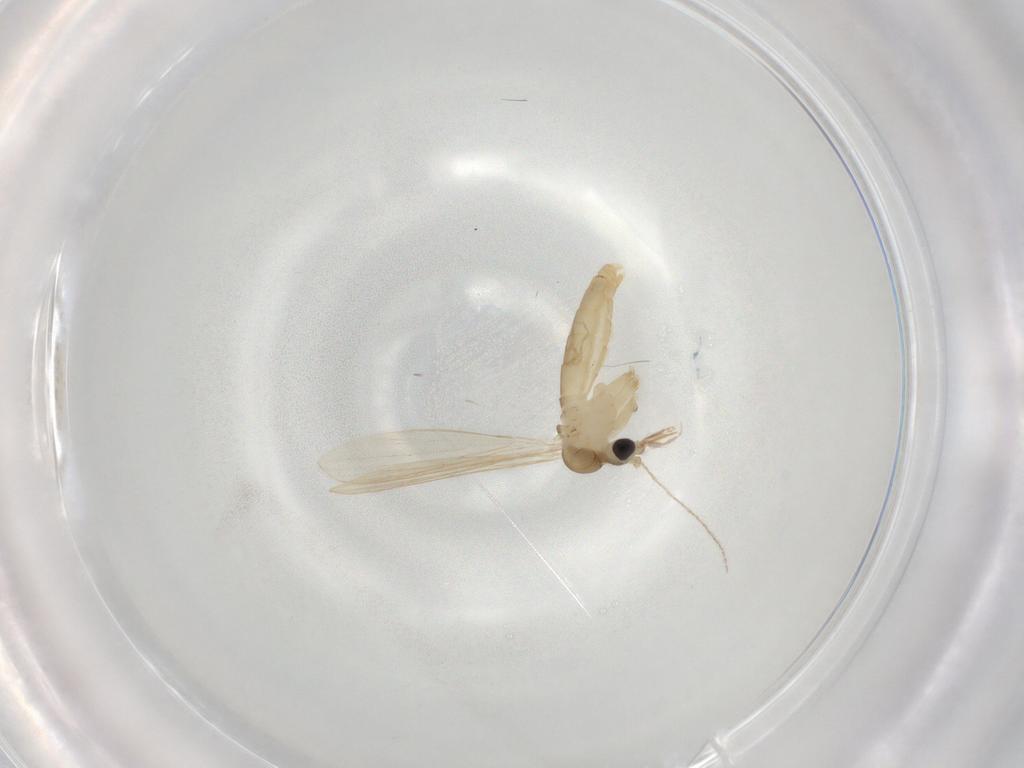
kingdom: Animalia
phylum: Arthropoda
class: Insecta
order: Diptera
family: Psychodidae
